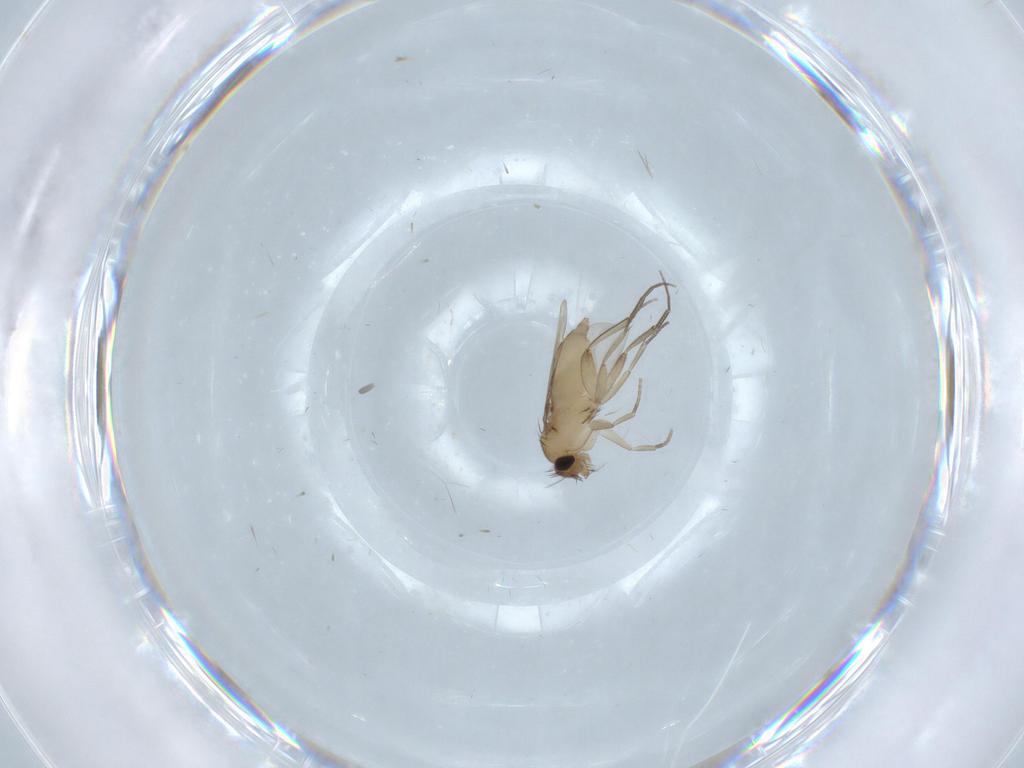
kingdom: Animalia
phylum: Arthropoda
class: Insecta
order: Diptera
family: Phoridae
